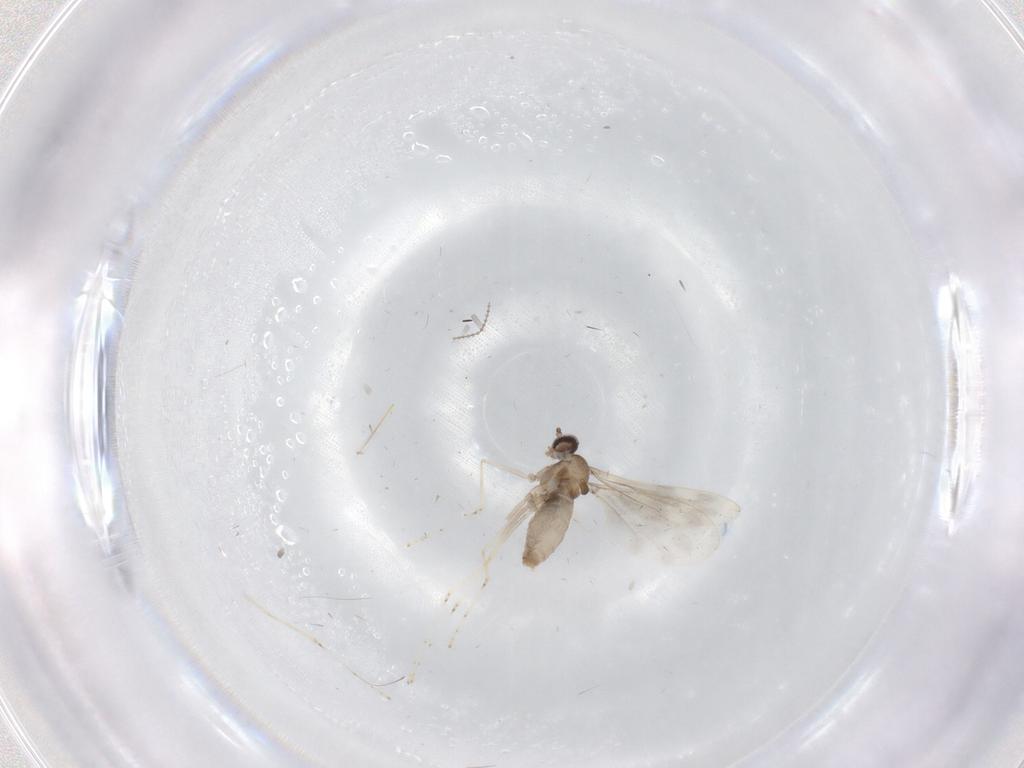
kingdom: Animalia
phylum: Arthropoda
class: Insecta
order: Diptera
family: Cecidomyiidae
